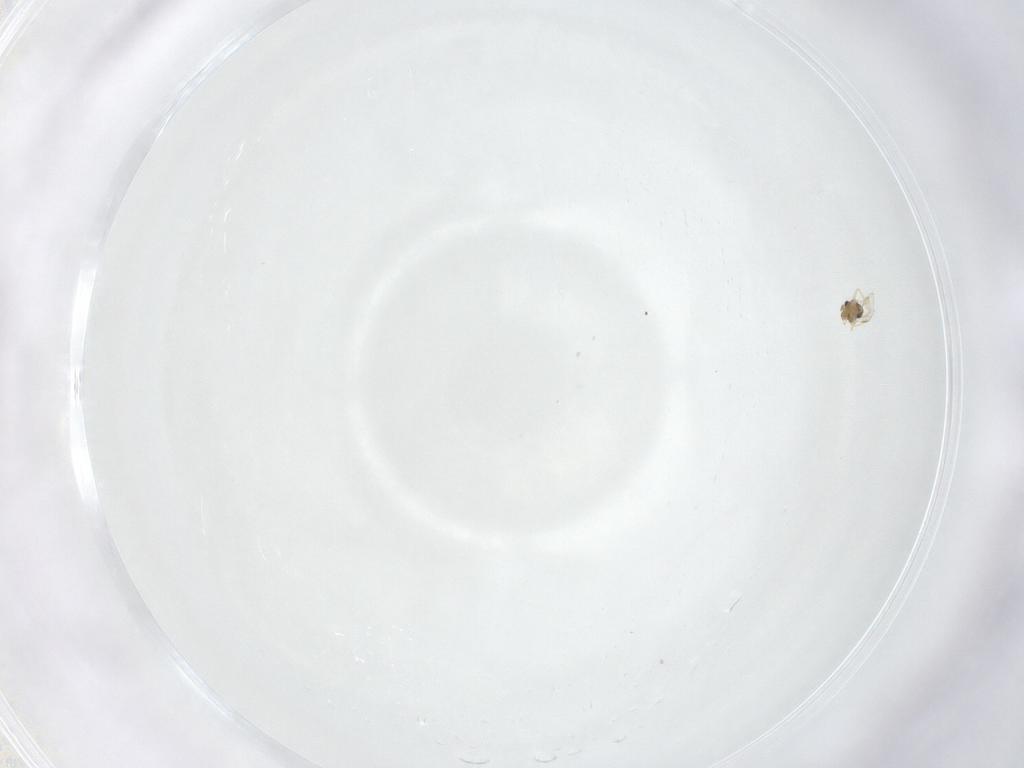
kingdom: Animalia
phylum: Arthropoda
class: Insecta
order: Hymenoptera
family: Aphelinidae
